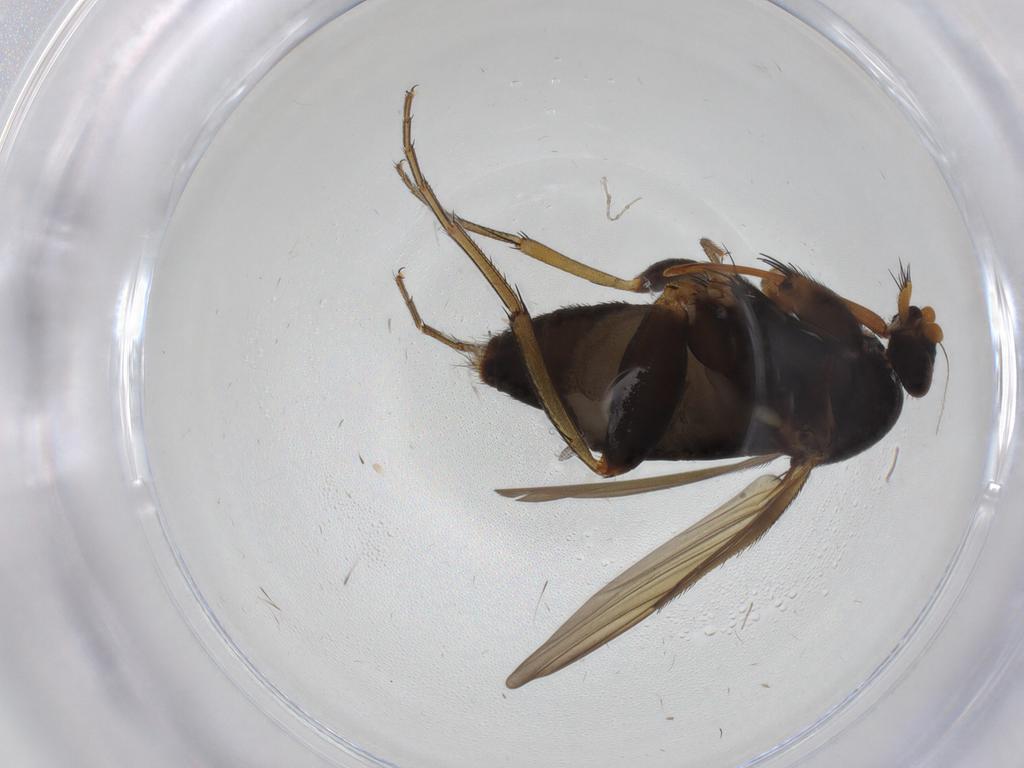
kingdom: Animalia
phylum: Arthropoda
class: Insecta
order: Diptera
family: Phoridae
